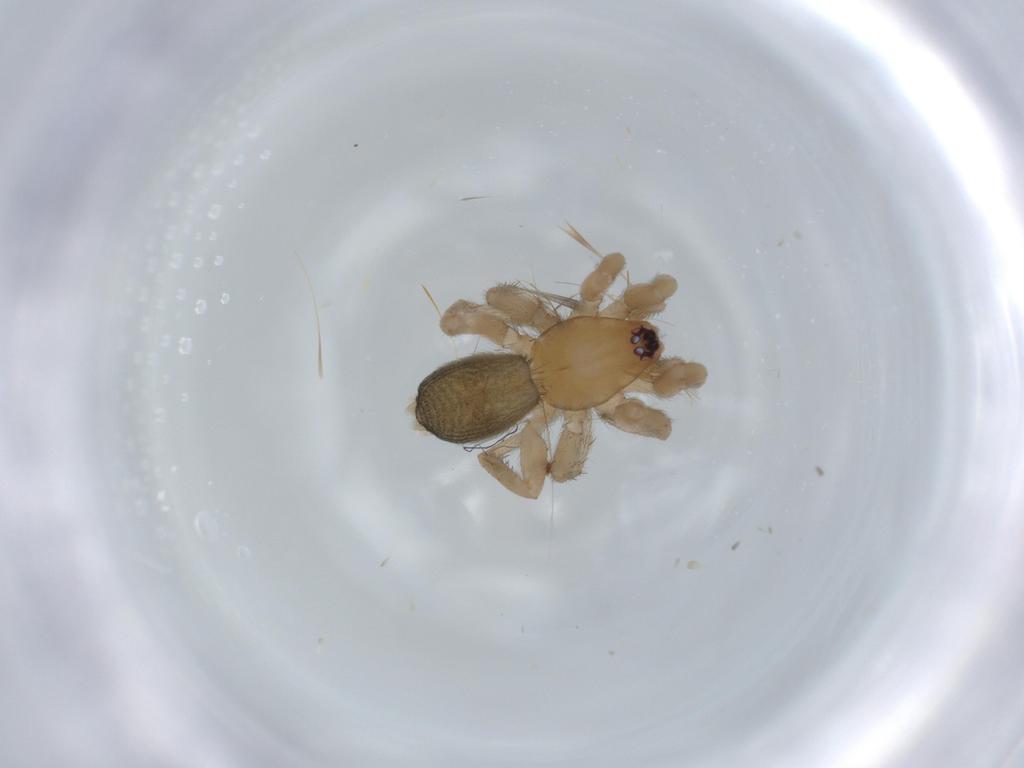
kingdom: Animalia
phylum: Arthropoda
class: Arachnida
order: Araneae
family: Gnaphosidae
